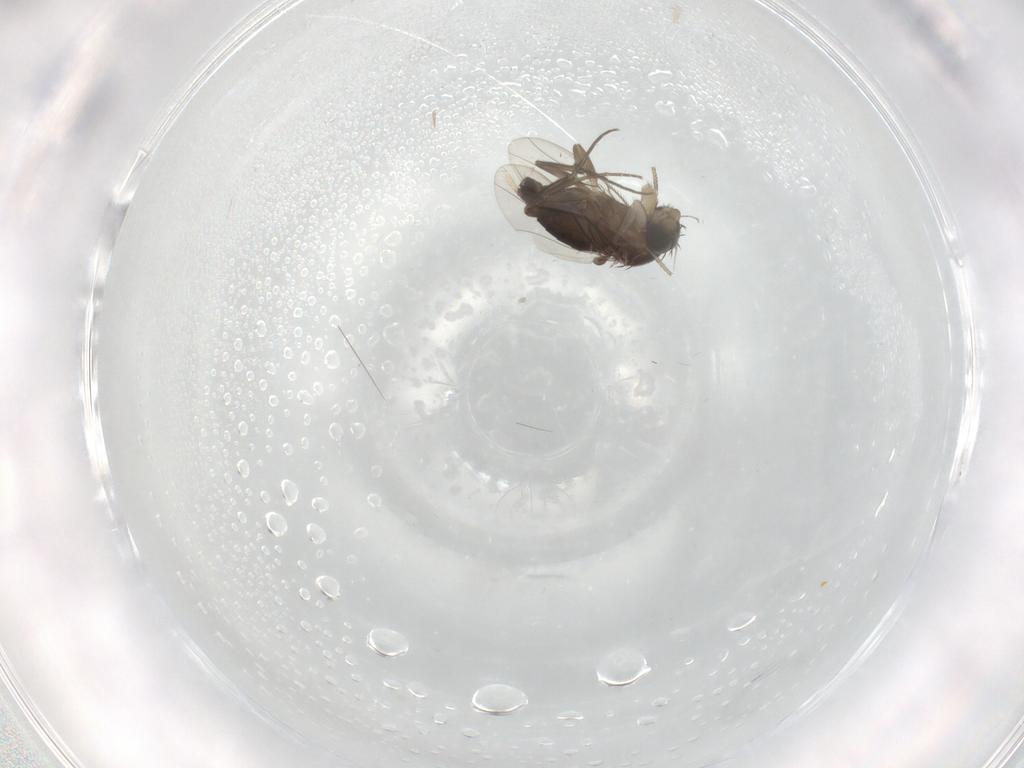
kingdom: Animalia
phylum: Arthropoda
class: Insecta
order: Diptera
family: Phoridae
